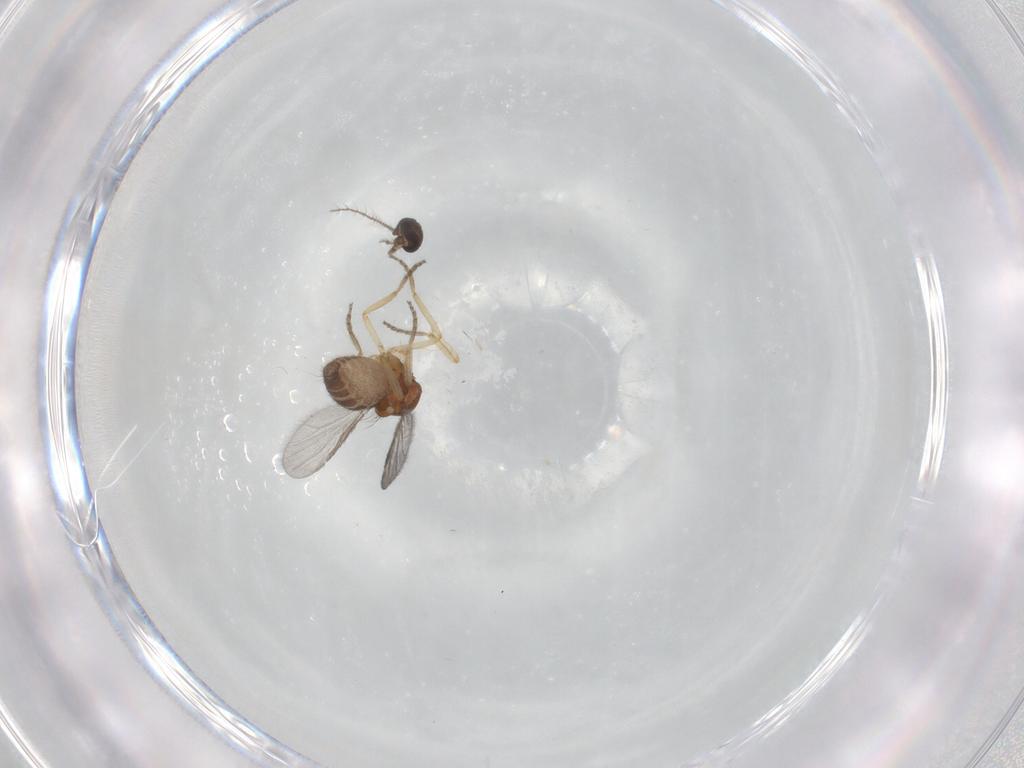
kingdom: Animalia
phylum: Arthropoda
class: Insecta
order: Diptera
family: Ceratopogonidae
